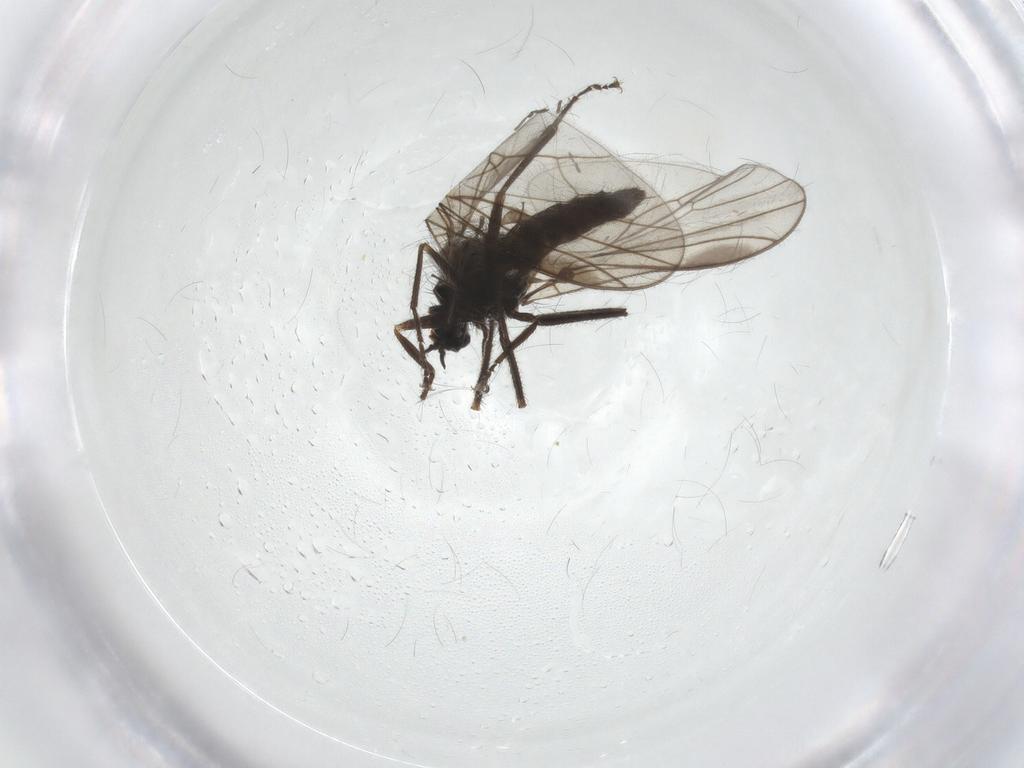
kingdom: Animalia
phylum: Arthropoda
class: Insecta
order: Diptera
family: Hybotidae
